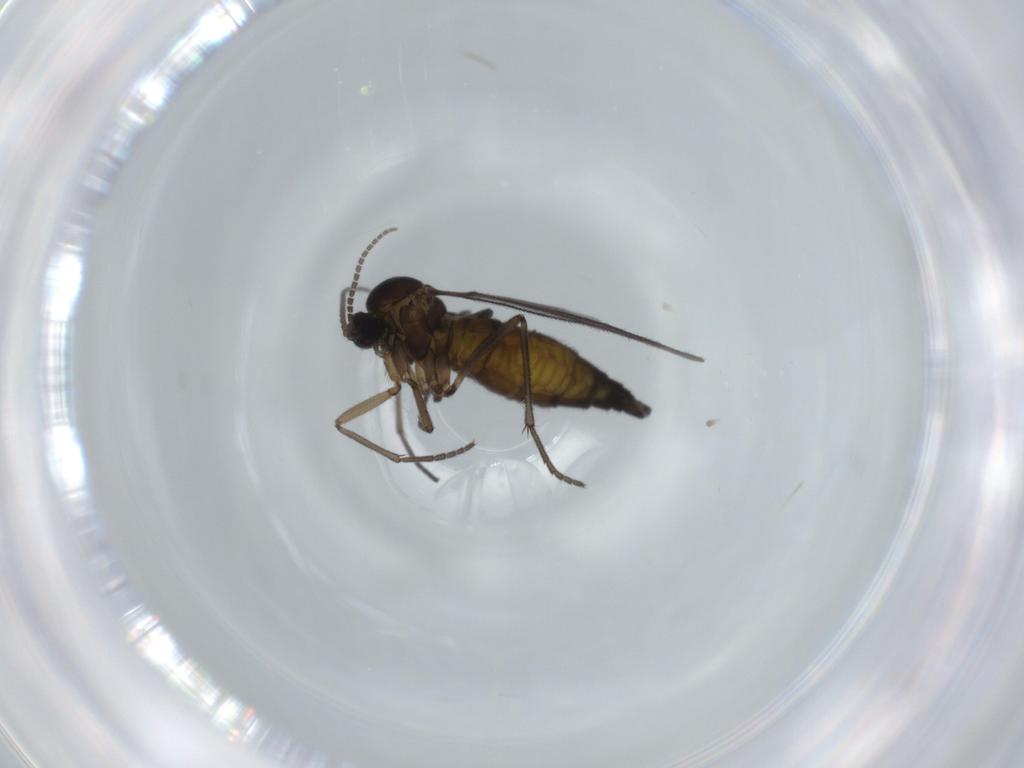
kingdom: Animalia
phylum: Arthropoda
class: Insecta
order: Diptera
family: Sciaridae
